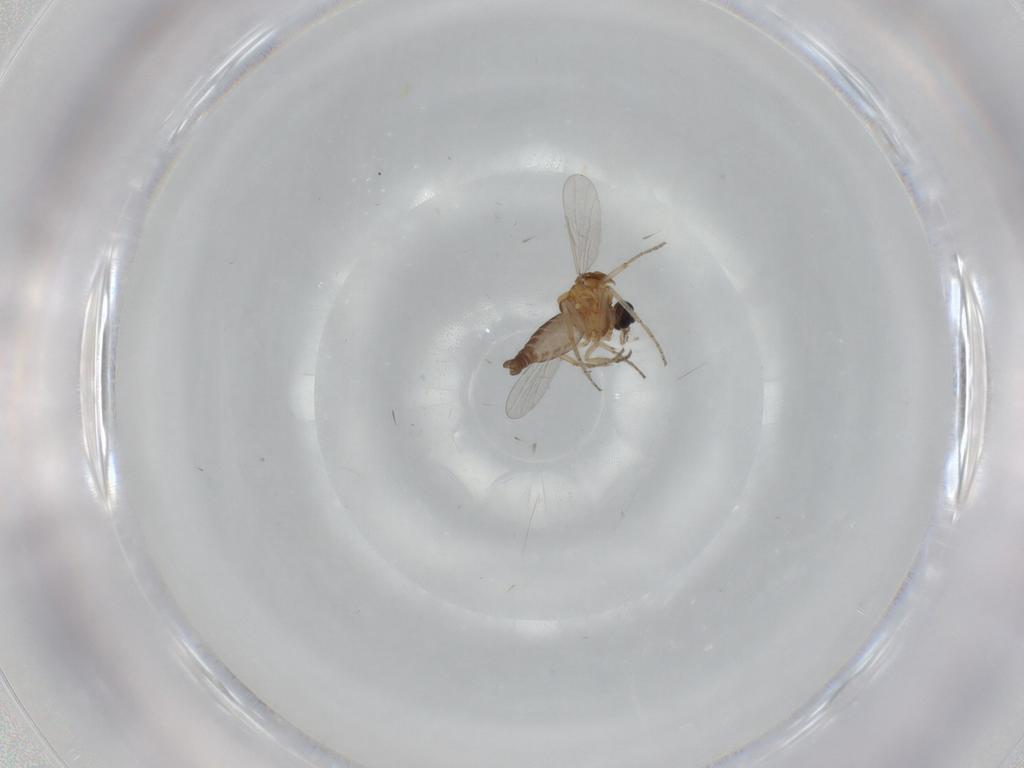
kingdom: Animalia
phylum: Arthropoda
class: Insecta
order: Diptera
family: Ceratopogonidae
